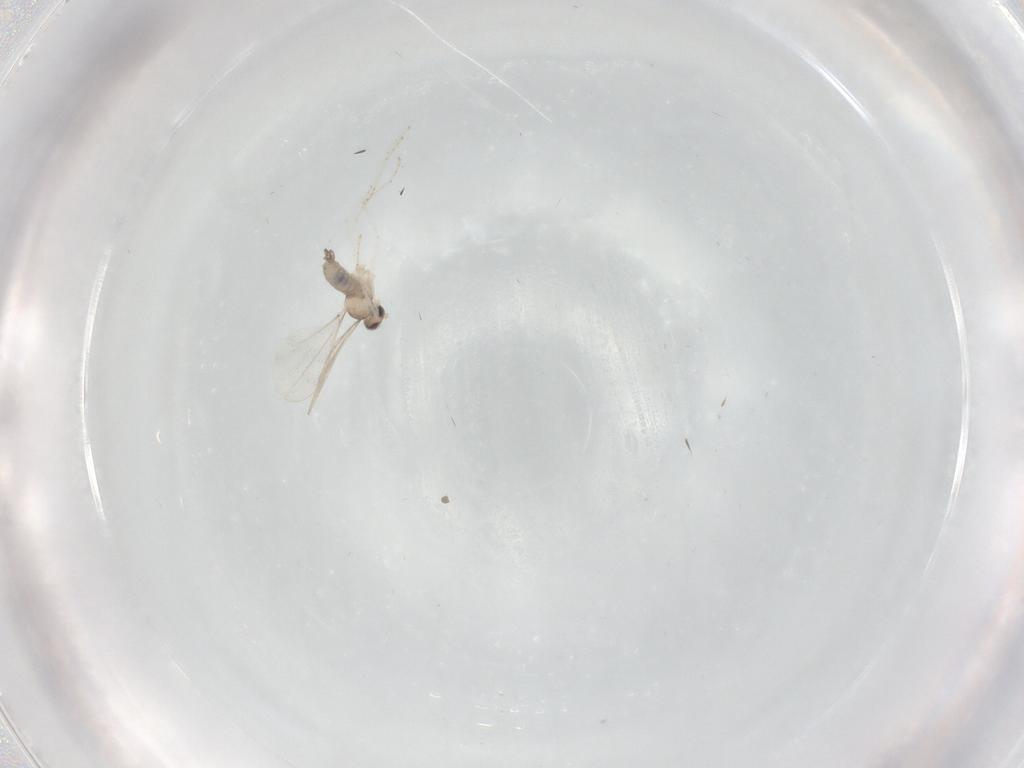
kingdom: Animalia
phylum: Arthropoda
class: Insecta
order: Diptera
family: Cecidomyiidae
